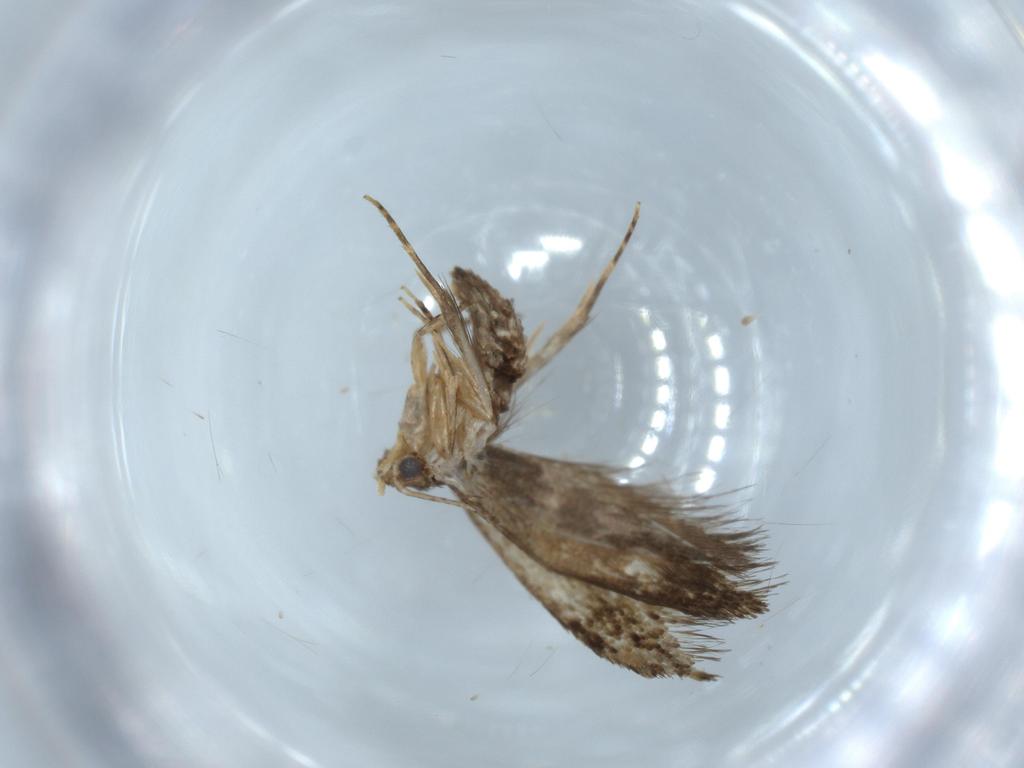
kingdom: Animalia
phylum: Arthropoda
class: Insecta
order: Lepidoptera
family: Tineidae
